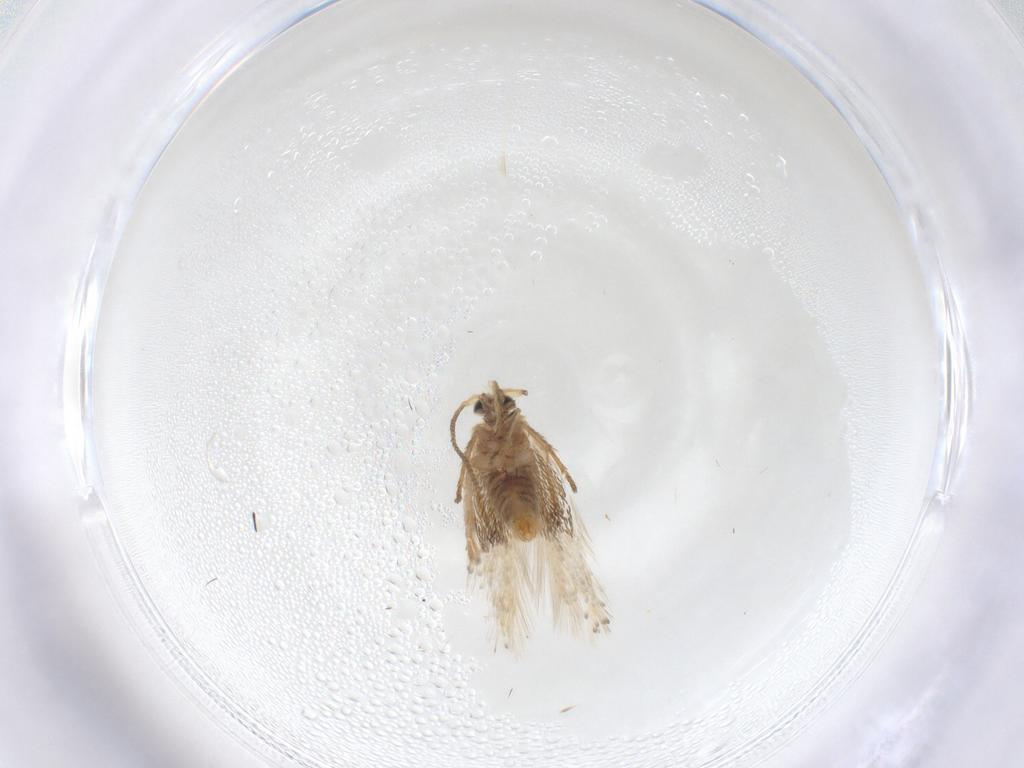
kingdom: Animalia
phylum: Arthropoda
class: Insecta
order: Lepidoptera
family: Nepticulidae
